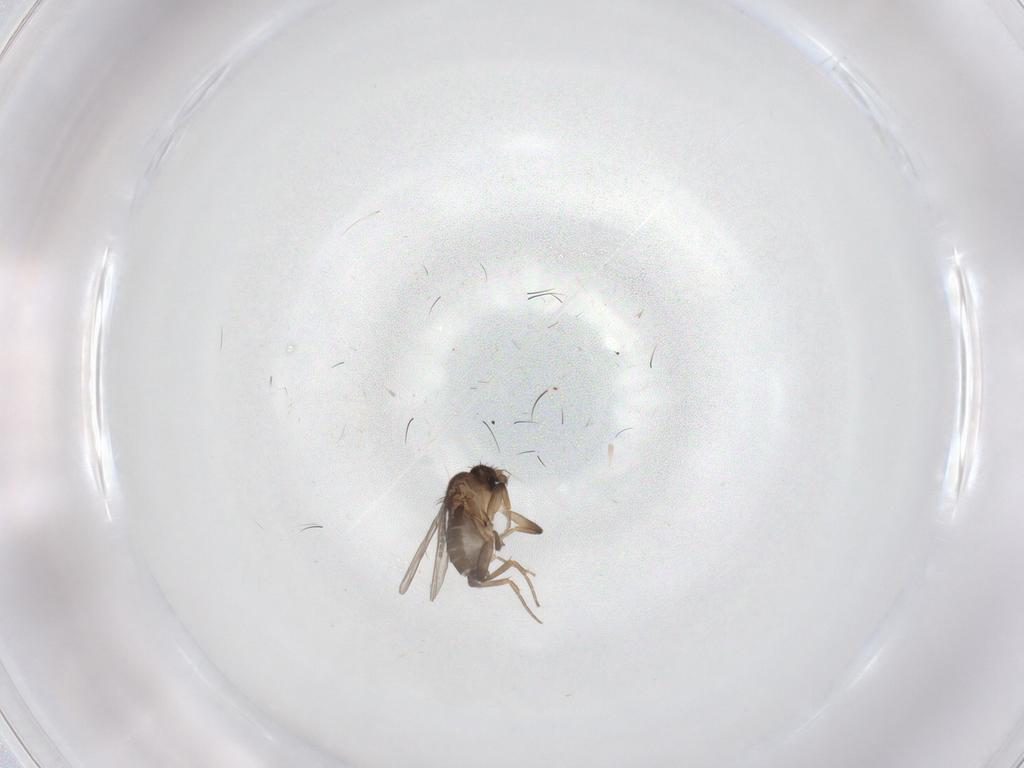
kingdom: Animalia
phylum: Arthropoda
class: Insecta
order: Diptera
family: Sciaridae
